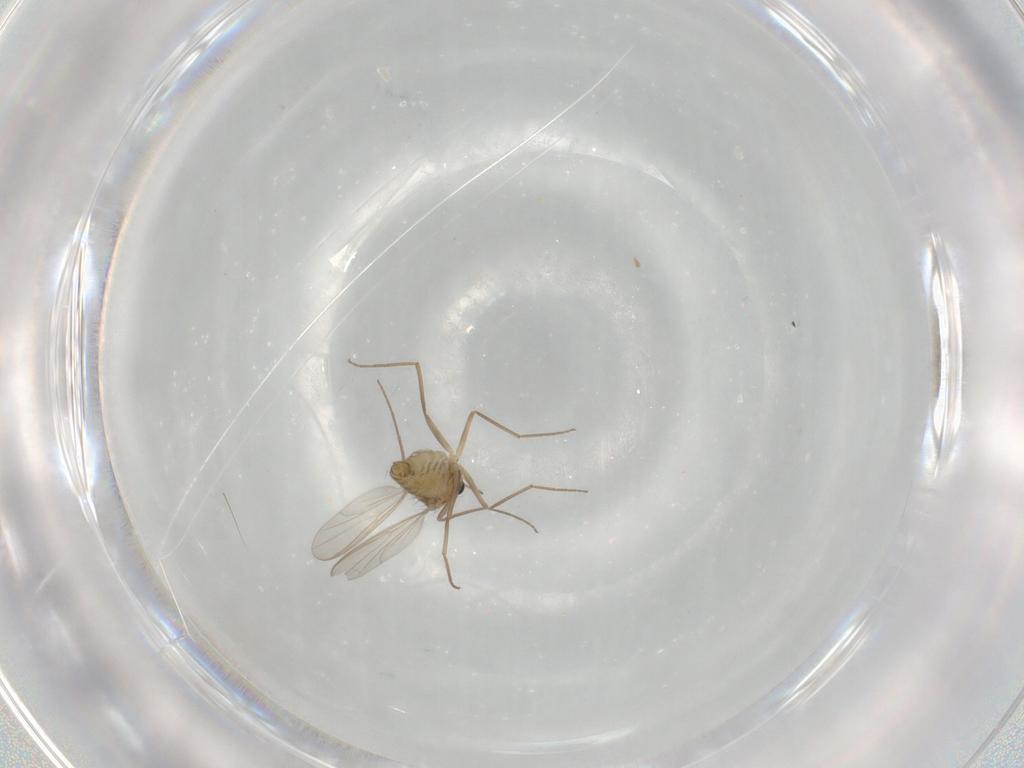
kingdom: Animalia
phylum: Arthropoda
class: Insecta
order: Diptera
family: Chironomidae
